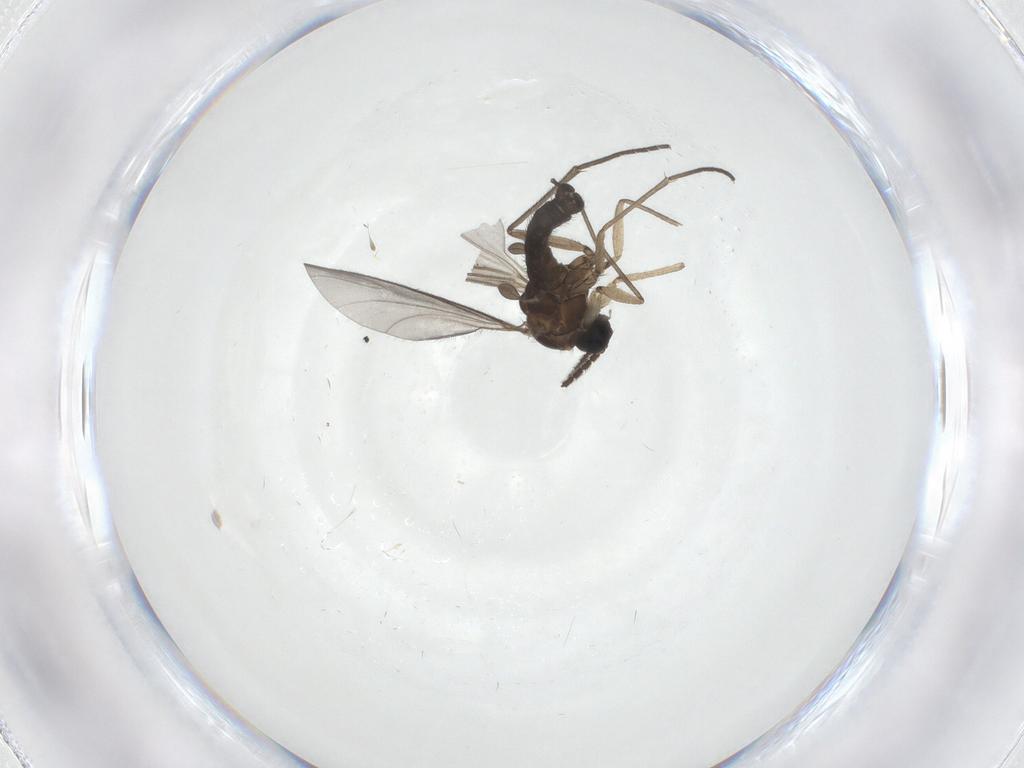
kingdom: Animalia
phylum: Arthropoda
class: Insecta
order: Diptera
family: Sciaridae
